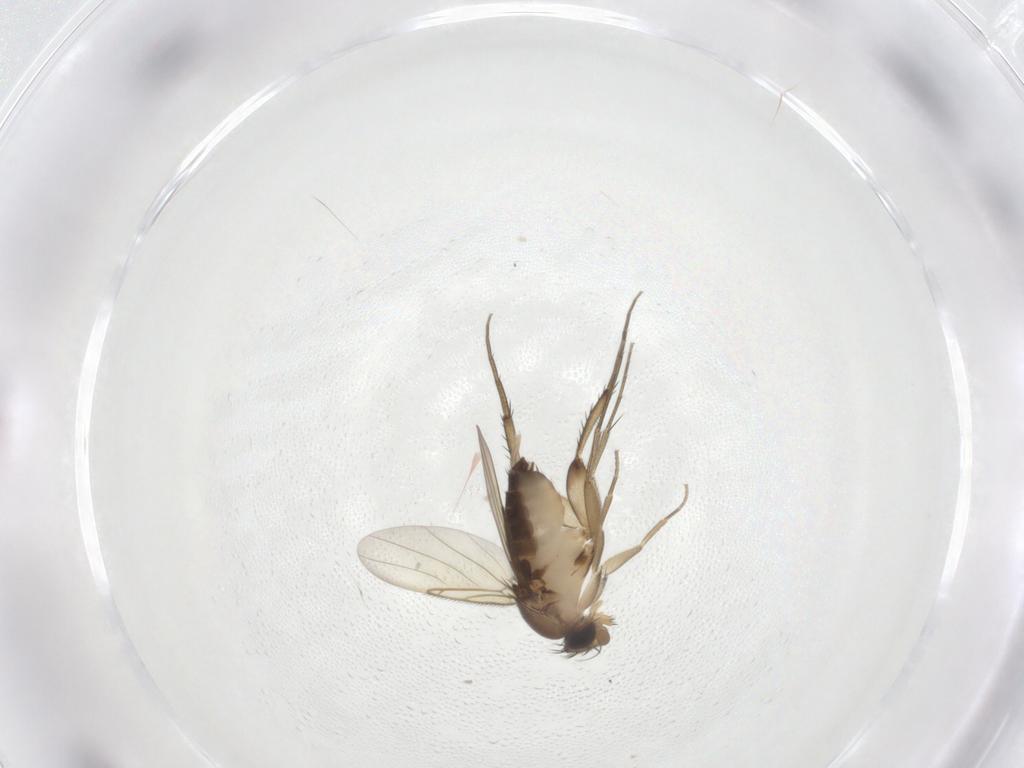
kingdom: Animalia
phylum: Arthropoda
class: Insecta
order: Diptera
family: Phoridae
